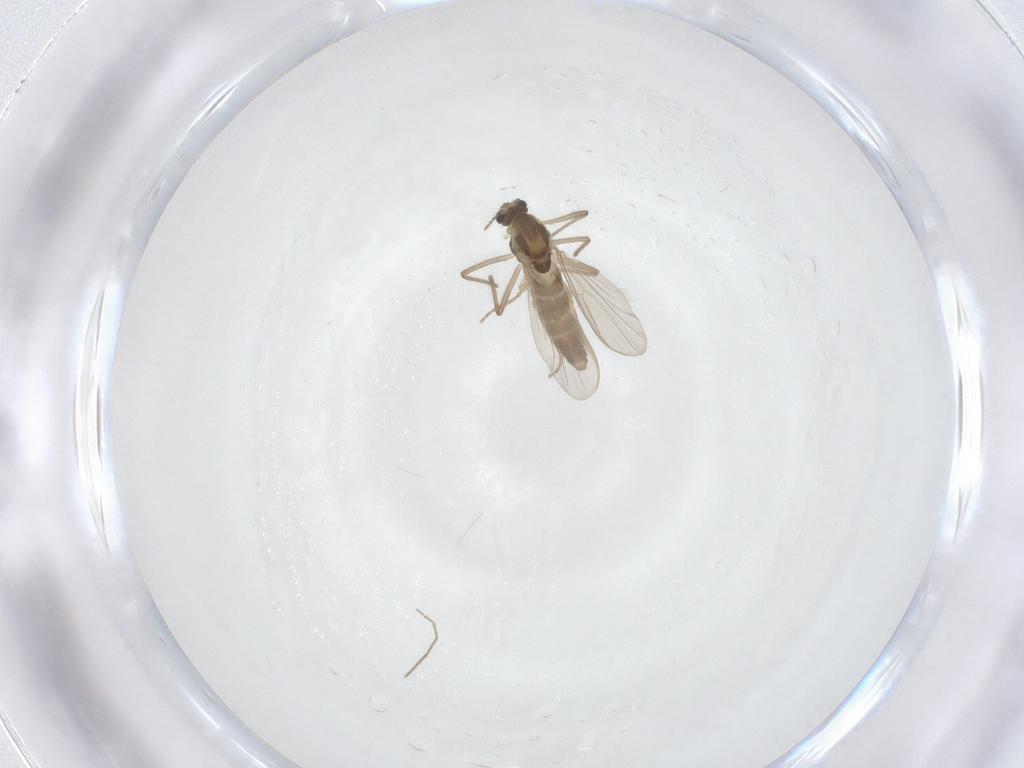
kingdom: Animalia
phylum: Arthropoda
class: Insecta
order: Diptera
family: Chironomidae
